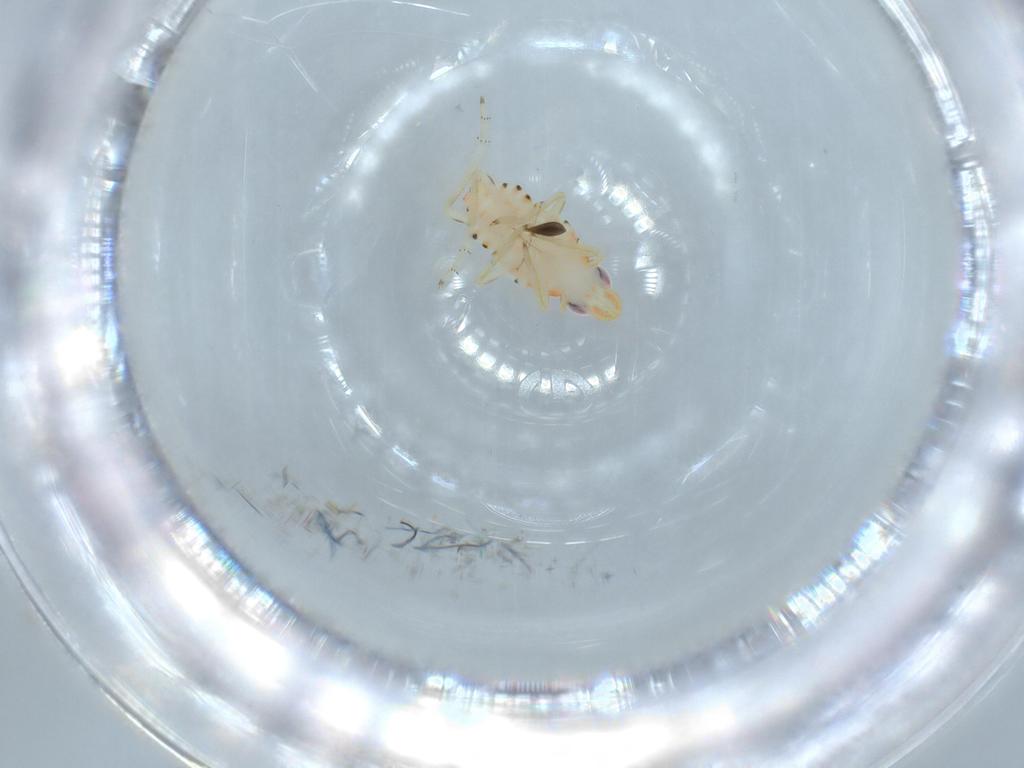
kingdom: Animalia
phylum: Arthropoda
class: Insecta
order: Hemiptera
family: Tropiduchidae
